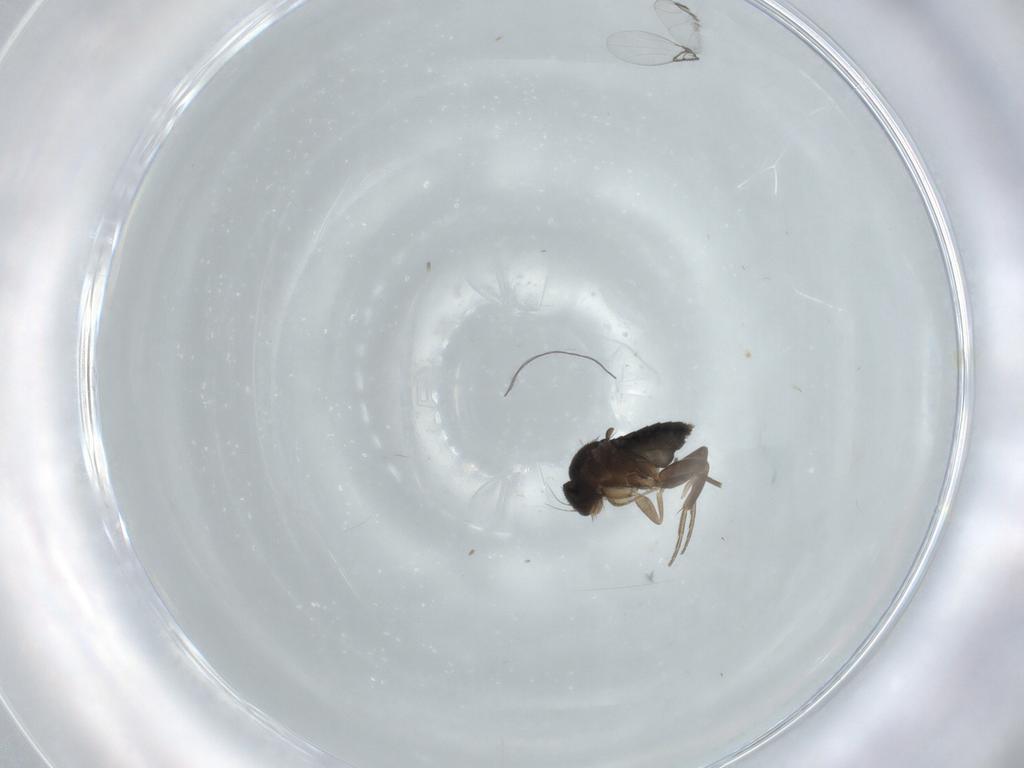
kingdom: Animalia
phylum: Arthropoda
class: Insecta
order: Diptera
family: Phoridae
